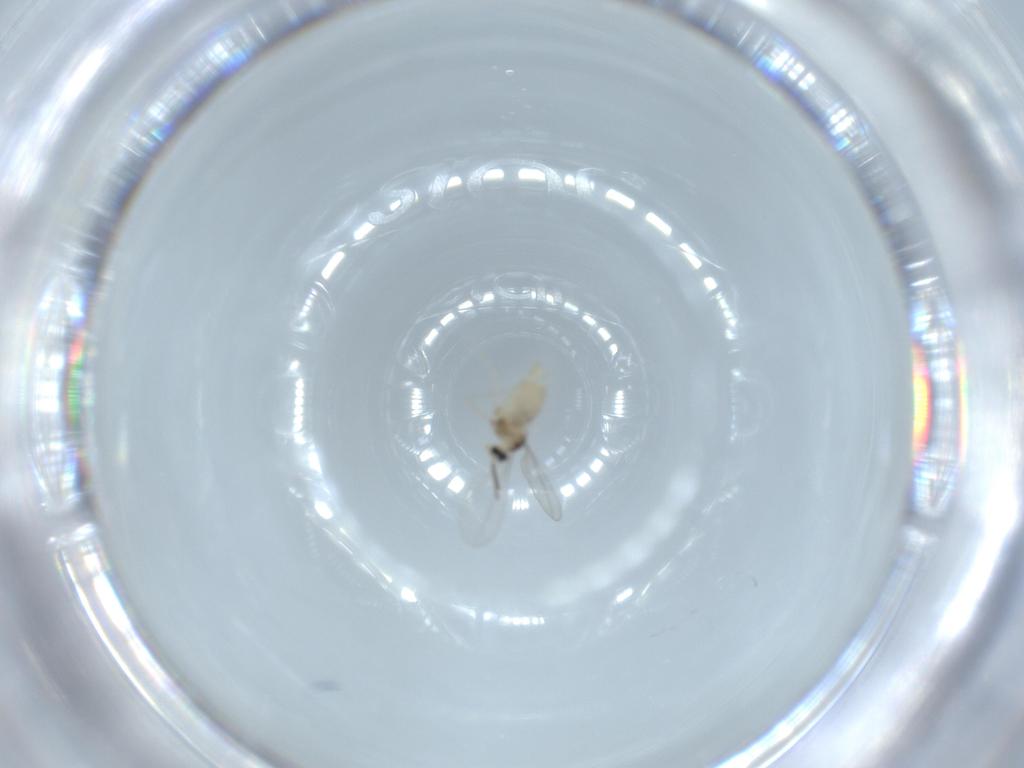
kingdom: Animalia
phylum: Arthropoda
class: Insecta
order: Diptera
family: Cecidomyiidae
